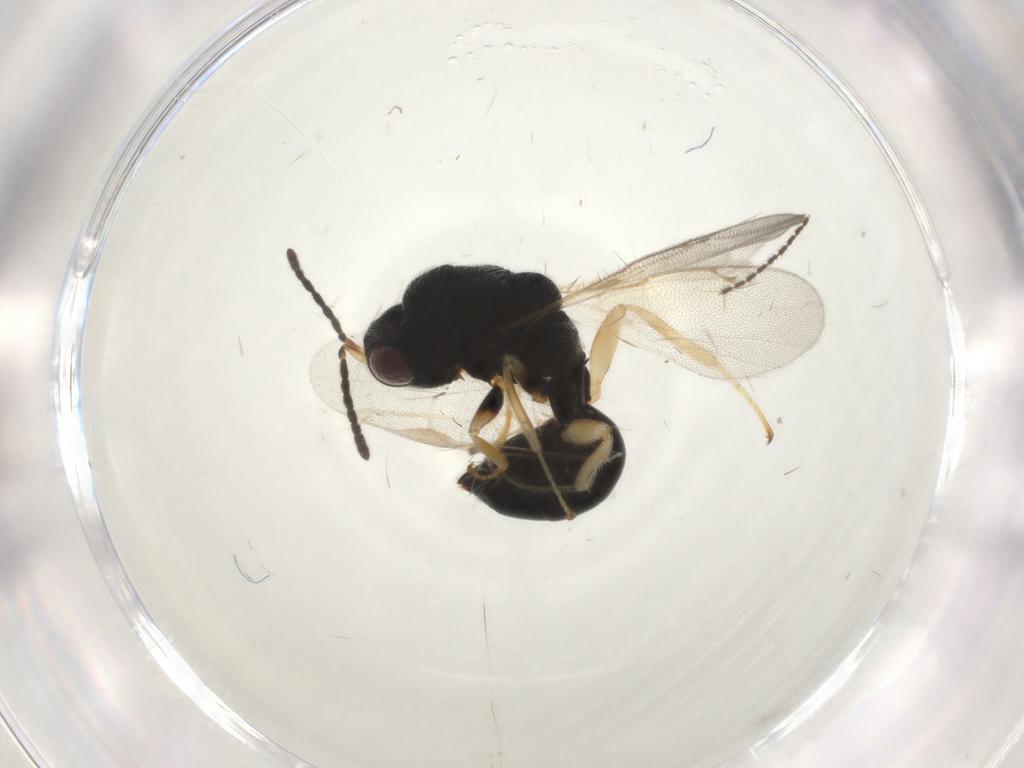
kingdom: Animalia
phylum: Arthropoda
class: Insecta
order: Hymenoptera
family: Formicidae
